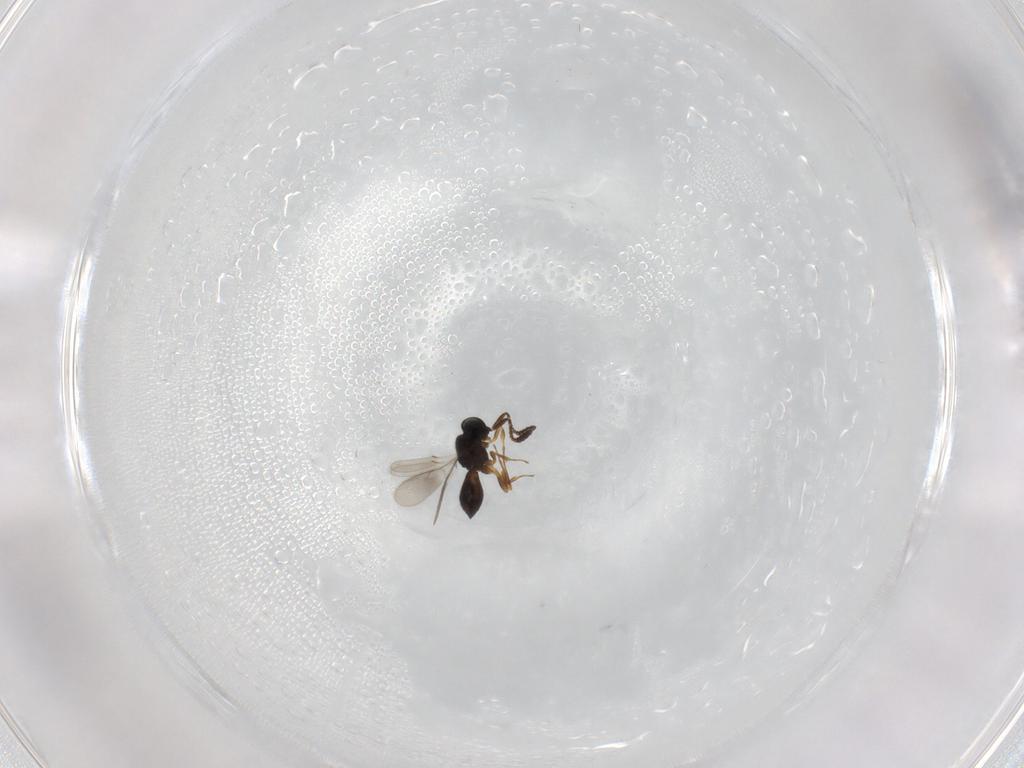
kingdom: Animalia
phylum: Arthropoda
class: Insecta
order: Hymenoptera
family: Scelionidae
